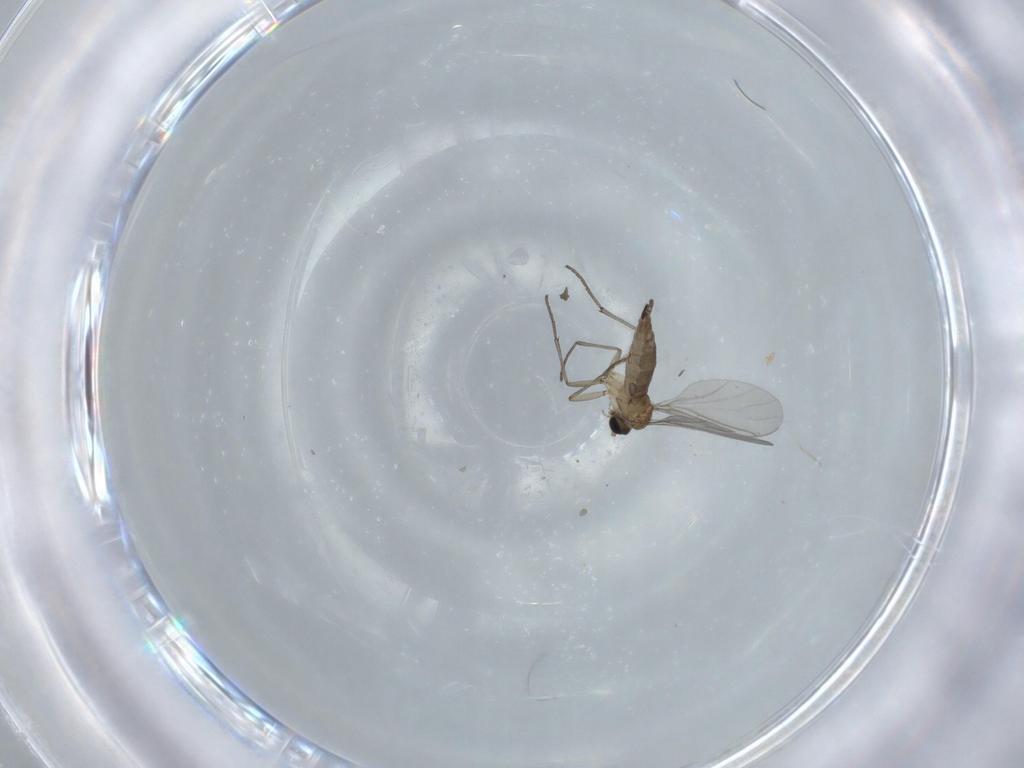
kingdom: Animalia
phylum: Arthropoda
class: Insecta
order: Diptera
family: Sciaridae
